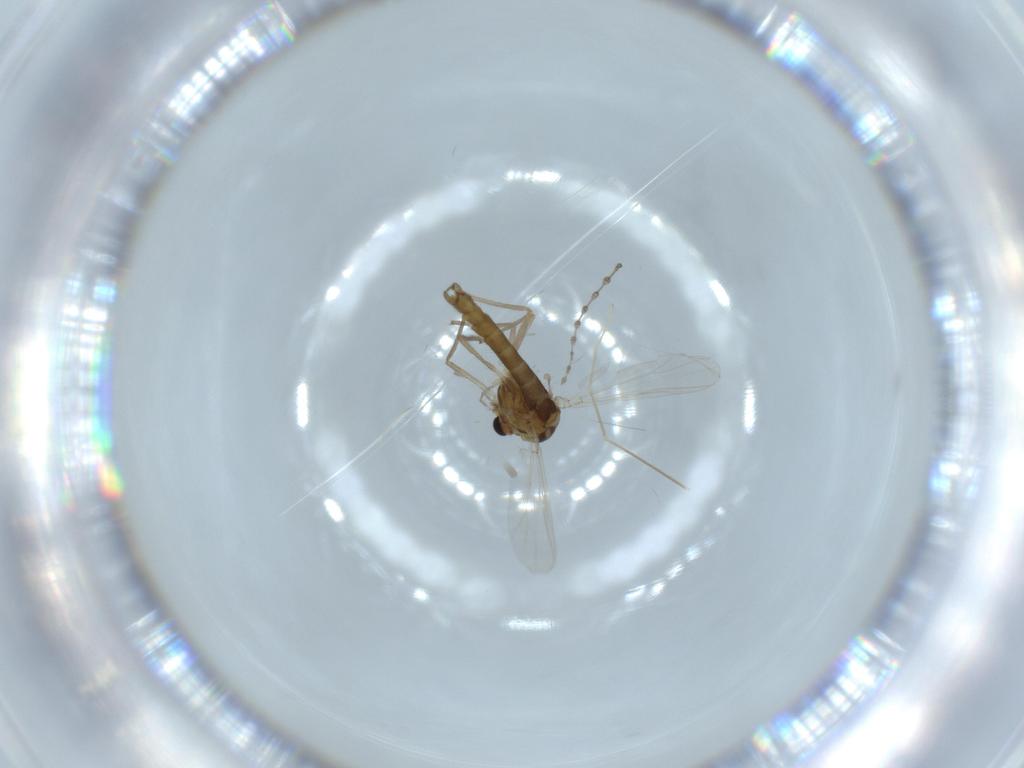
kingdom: Animalia
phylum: Arthropoda
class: Insecta
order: Diptera
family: Chironomidae
